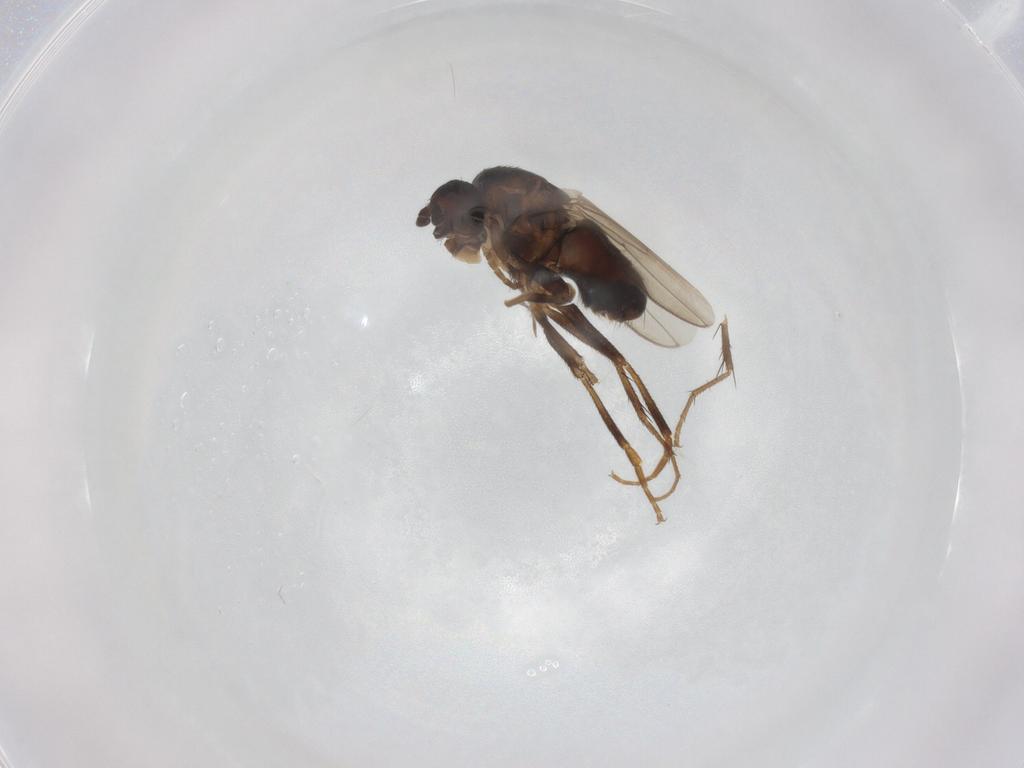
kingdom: Animalia
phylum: Arthropoda
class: Insecta
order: Diptera
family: Sphaeroceridae
